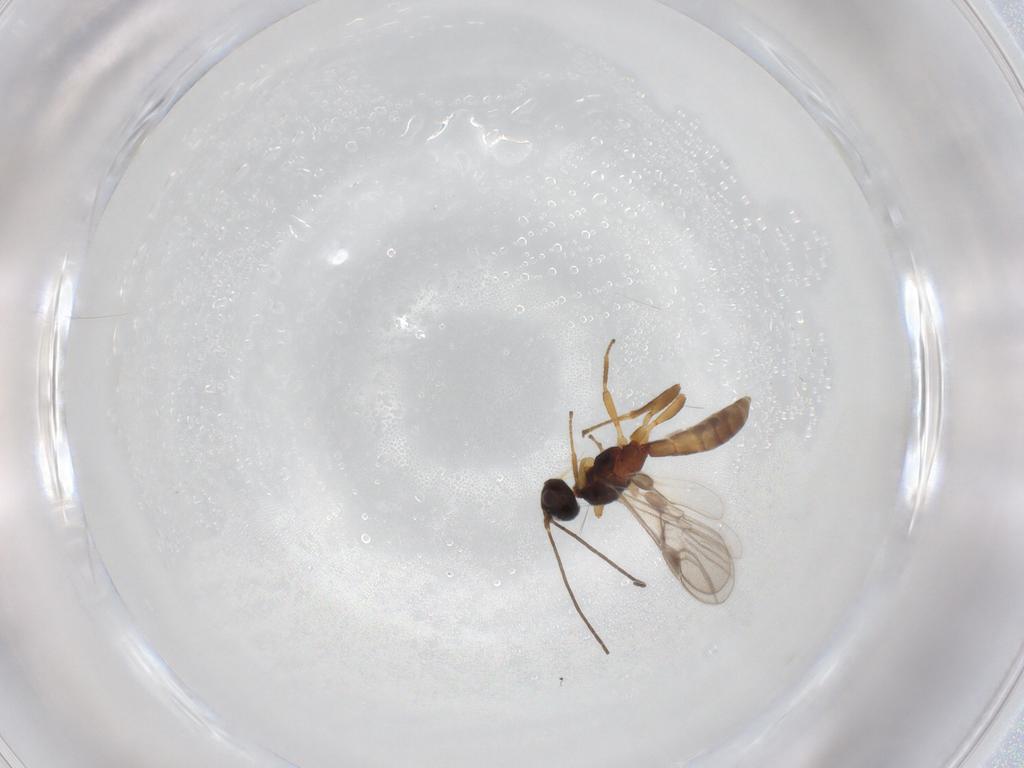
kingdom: Animalia
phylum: Arthropoda
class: Insecta
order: Hymenoptera
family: Braconidae
